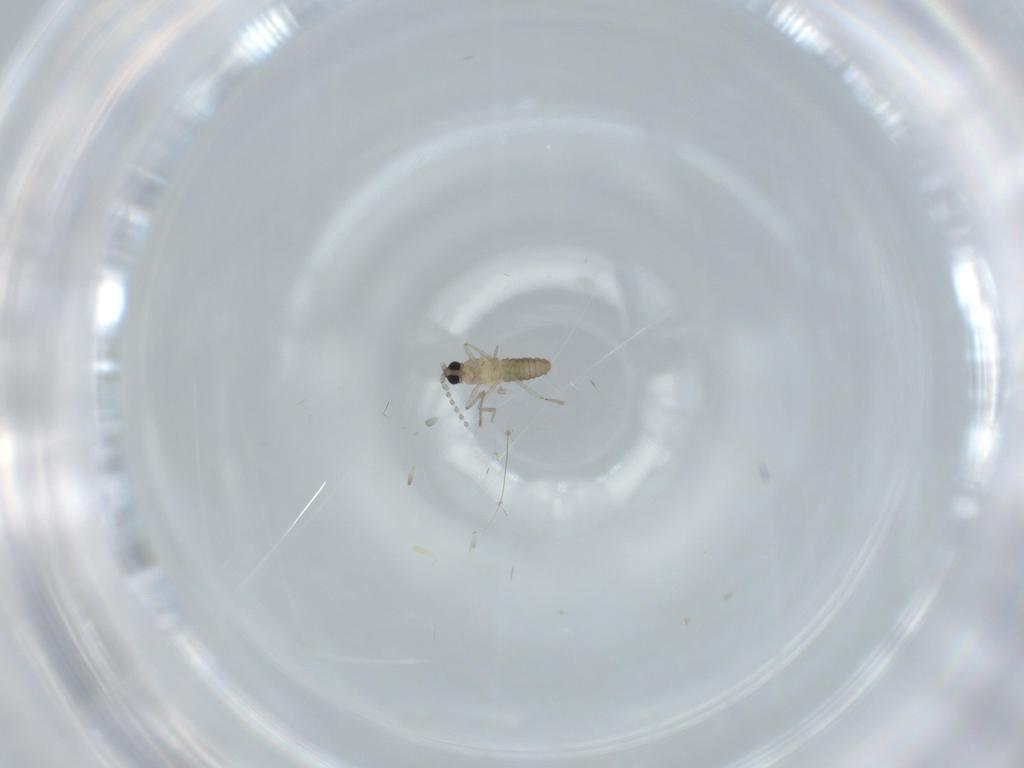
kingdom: Animalia
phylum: Arthropoda
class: Insecta
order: Diptera
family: Cecidomyiidae
